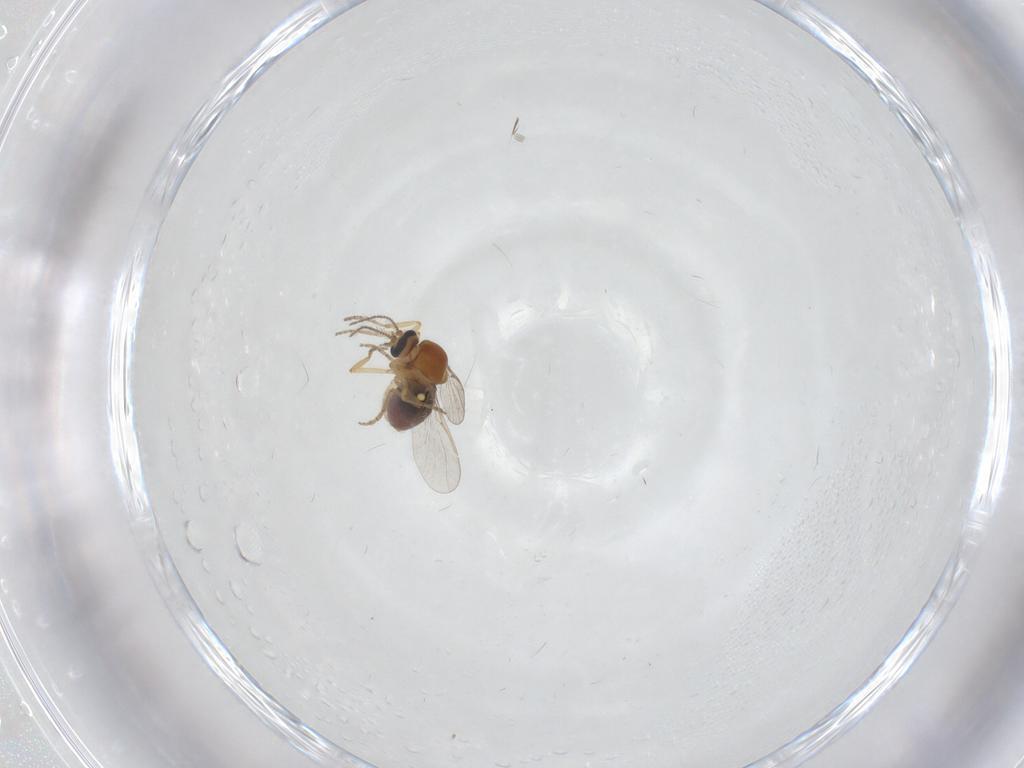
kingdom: Animalia
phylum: Arthropoda
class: Insecta
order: Diptera
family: Ceratopogonidae
